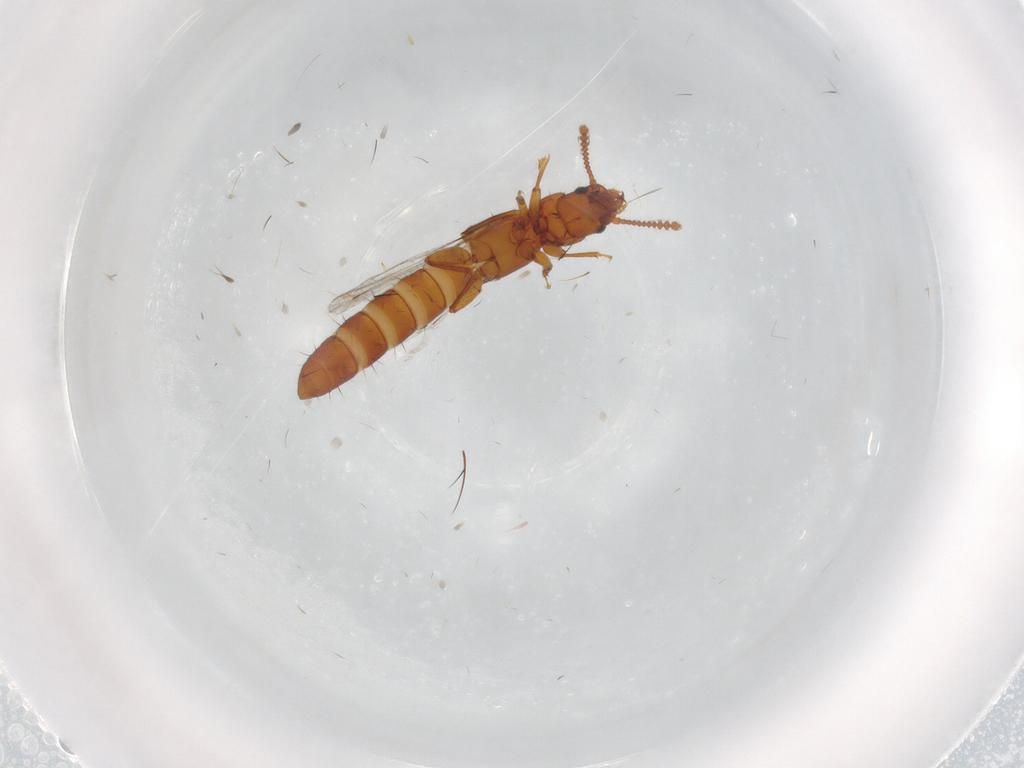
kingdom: Animalia
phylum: Arthropoda
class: Insecta
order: Coleoptera
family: Staphylinidae
